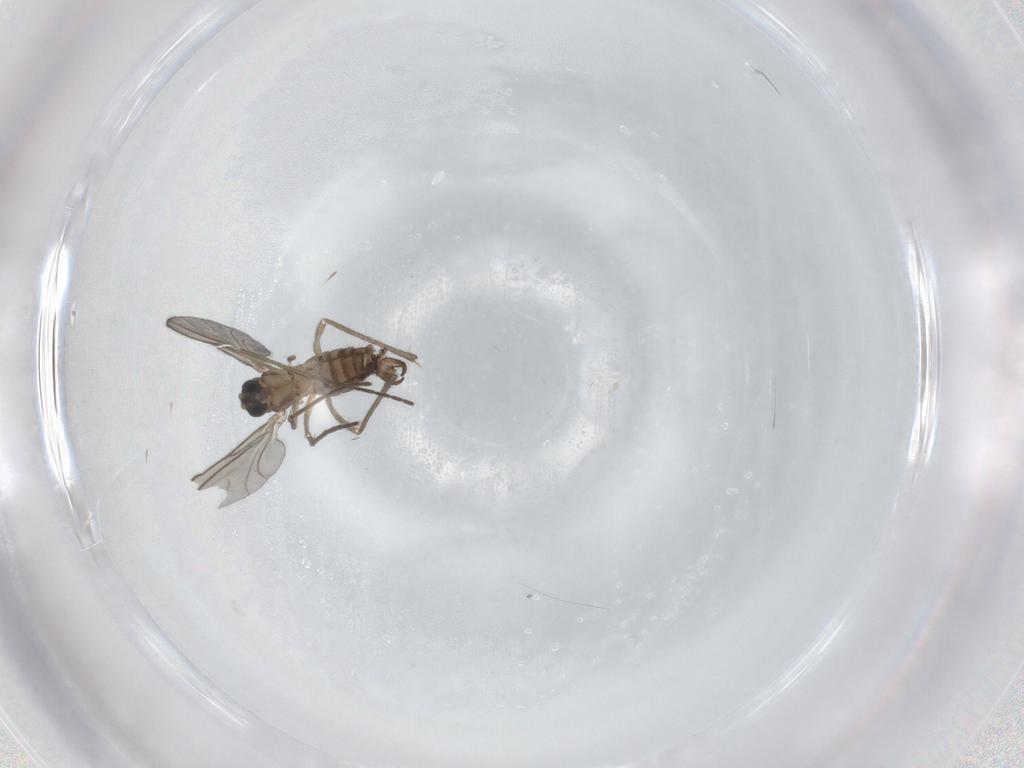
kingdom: Animalia
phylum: Arthropoda
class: Insecta
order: Diptera
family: Sciaridae
